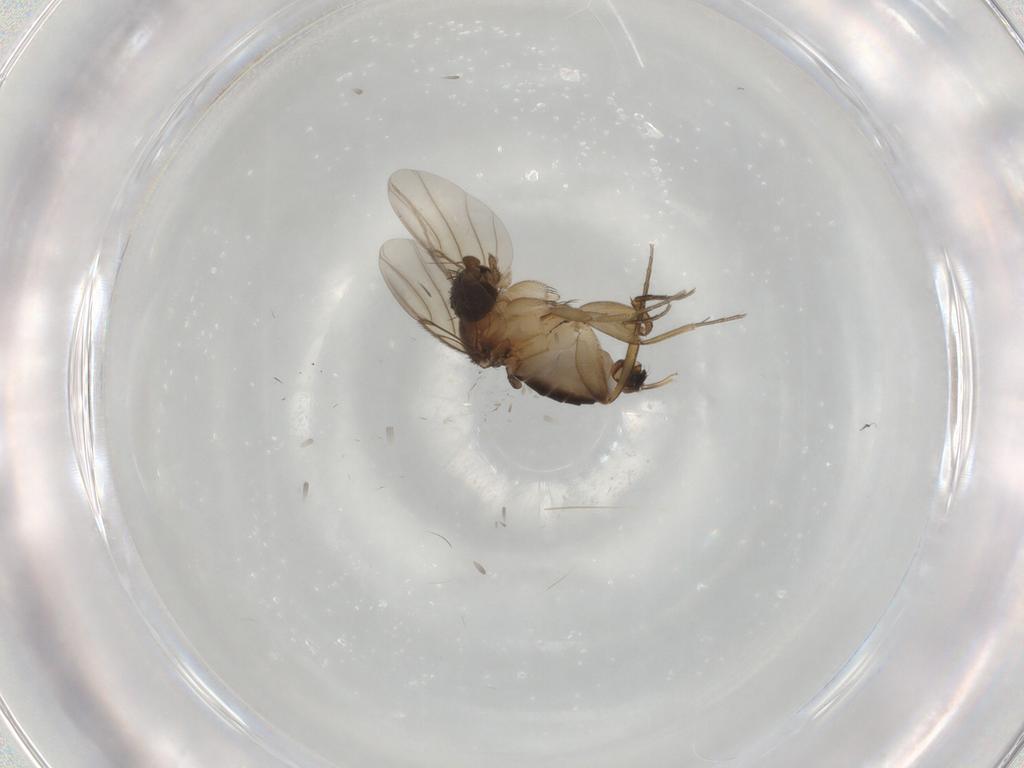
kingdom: Animalia
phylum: Arthropoda
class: Insecta
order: Diptera
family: Phoridae
